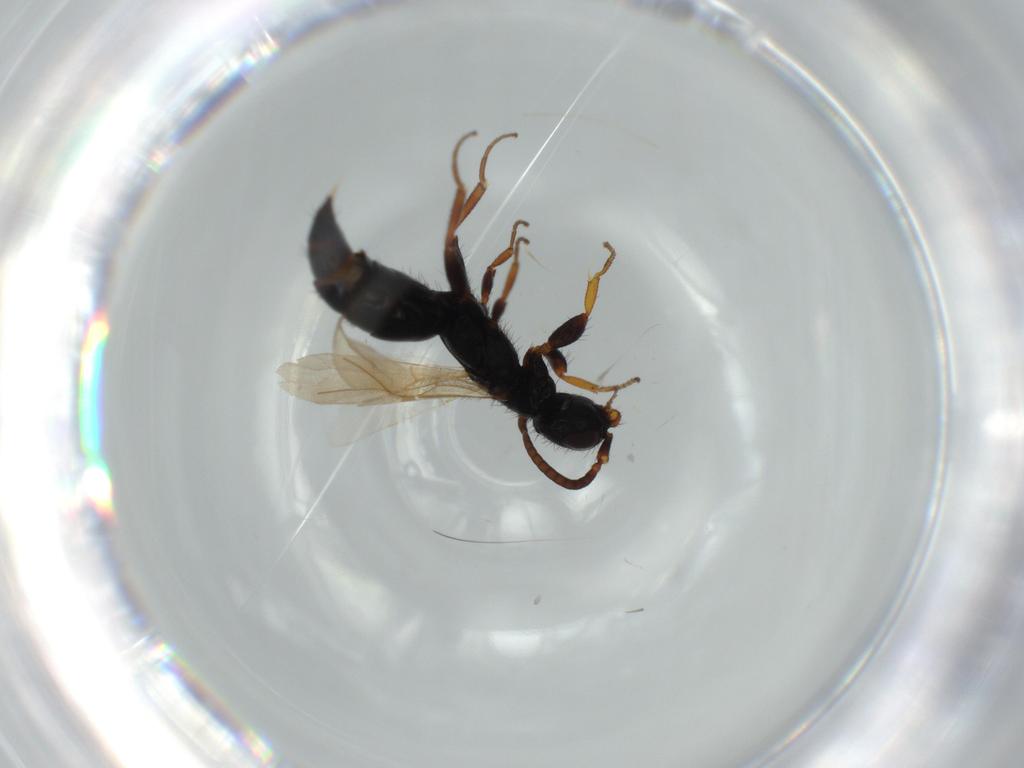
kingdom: Animalia
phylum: Arthropoda
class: Insecta
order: Hymenoptera
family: Bethylidae
